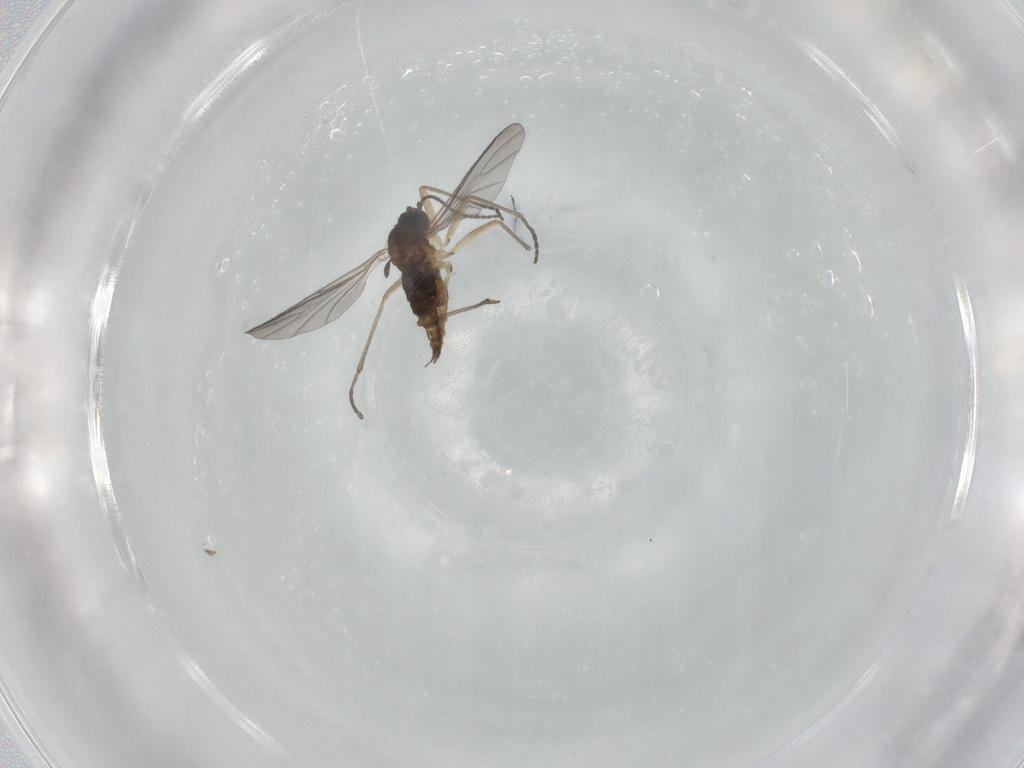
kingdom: Animalia
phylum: Arthropoda
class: Insecta
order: Diptera
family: Sciaridae
